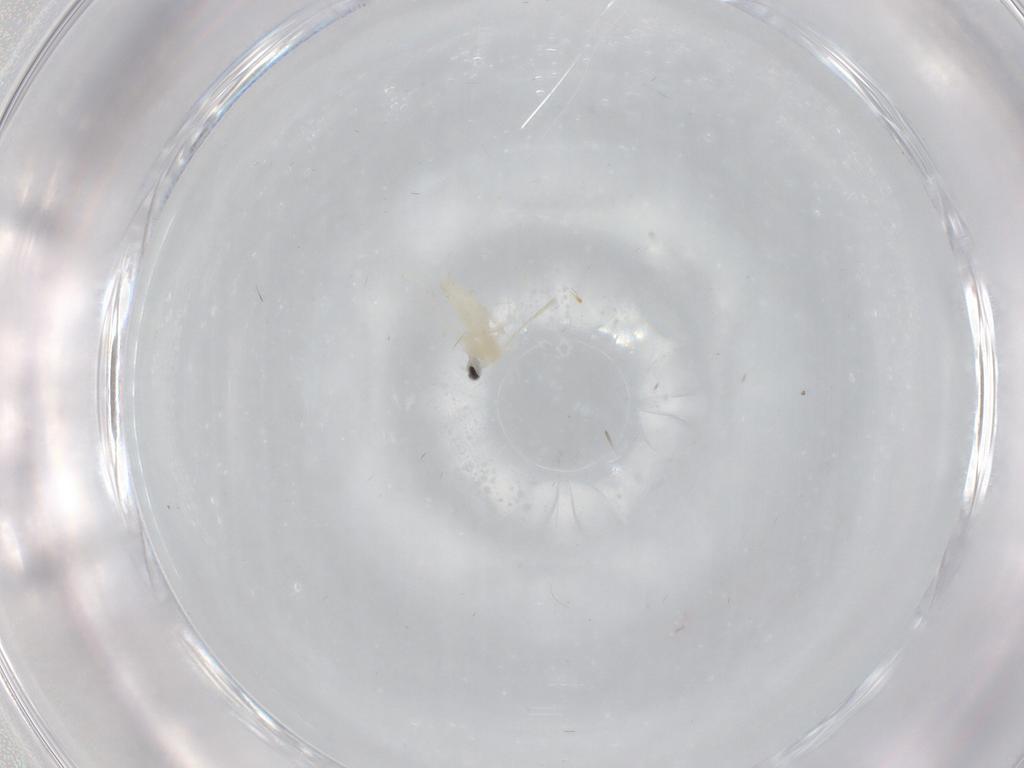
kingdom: Animalia
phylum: Arthropoda
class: Insecta
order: Diptera
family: Cecidomyiidae
